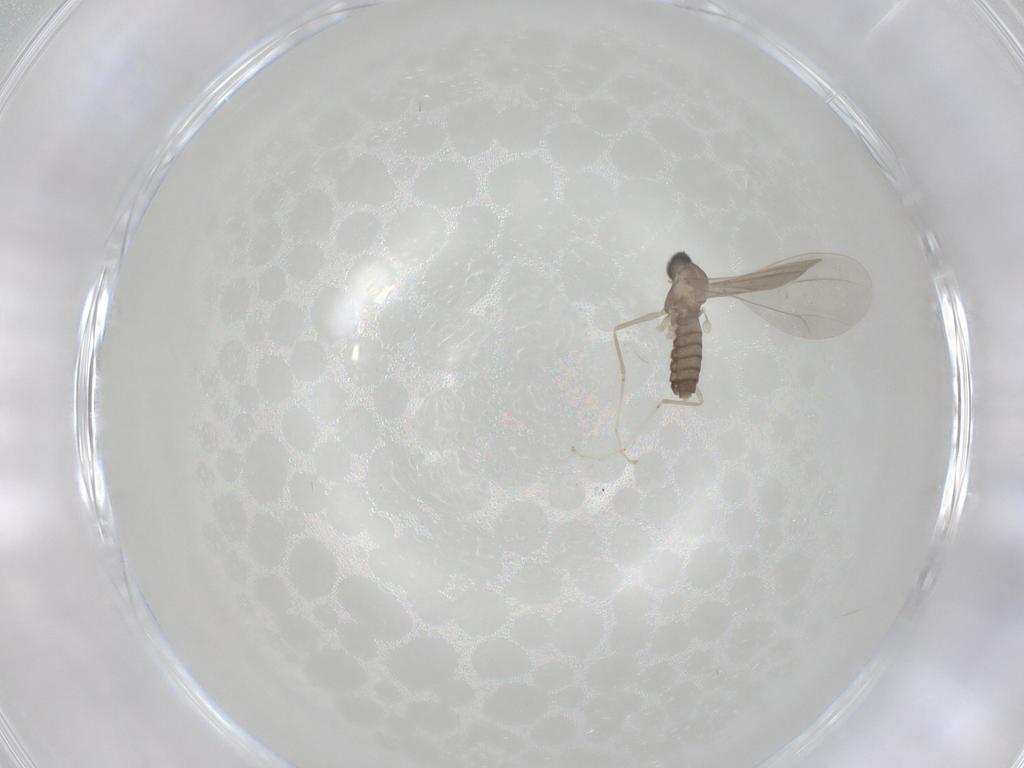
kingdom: Animalia
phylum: Arthropoda
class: Insecta
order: Diptera
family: Cecidomyiidae
